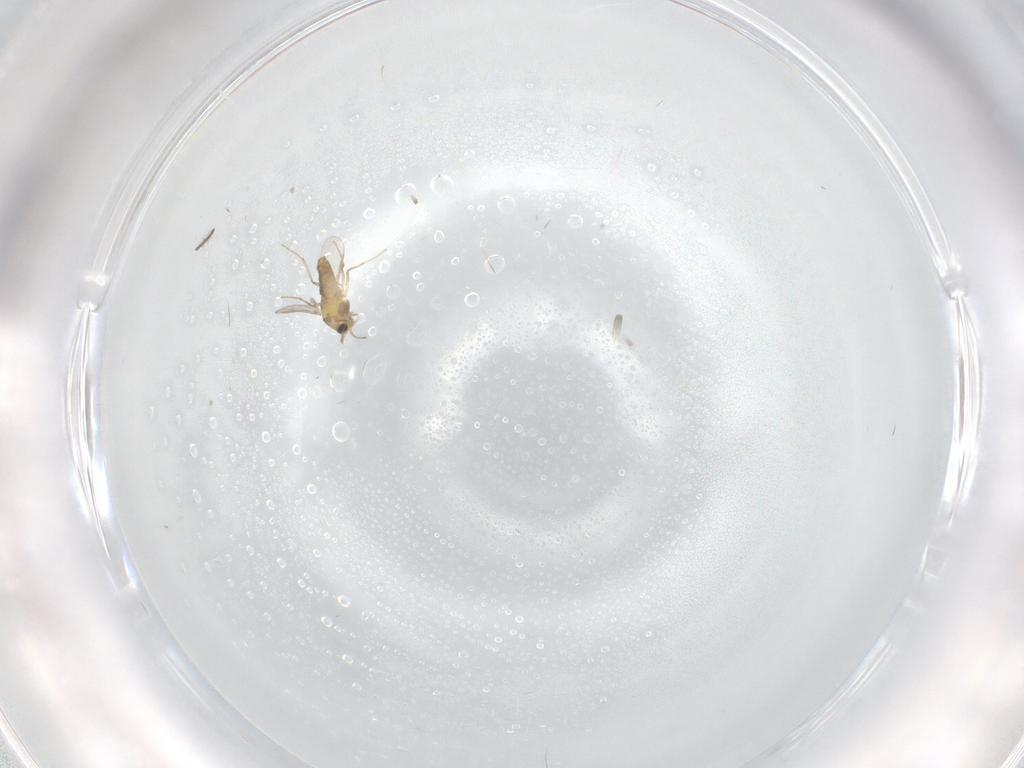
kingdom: Animalia
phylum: Arthropoda
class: Insecta
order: Diptera
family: Chironomidae
